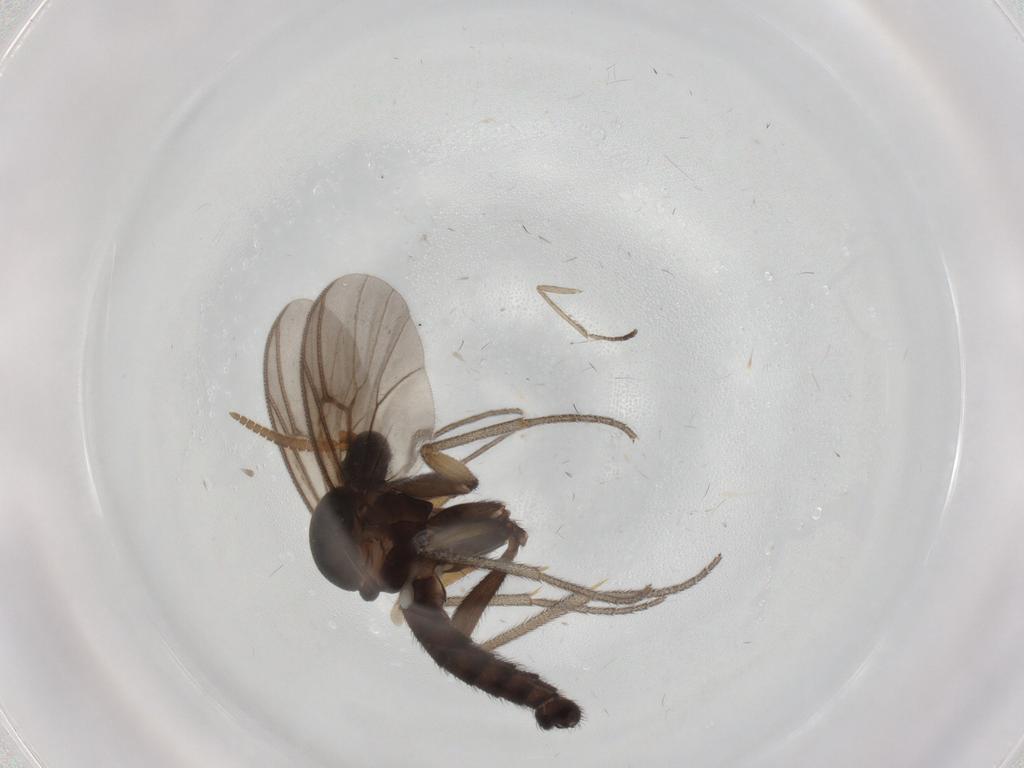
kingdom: Animalia
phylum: Arthropoda
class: Insecta
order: Diptera
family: Mycetophilidae
